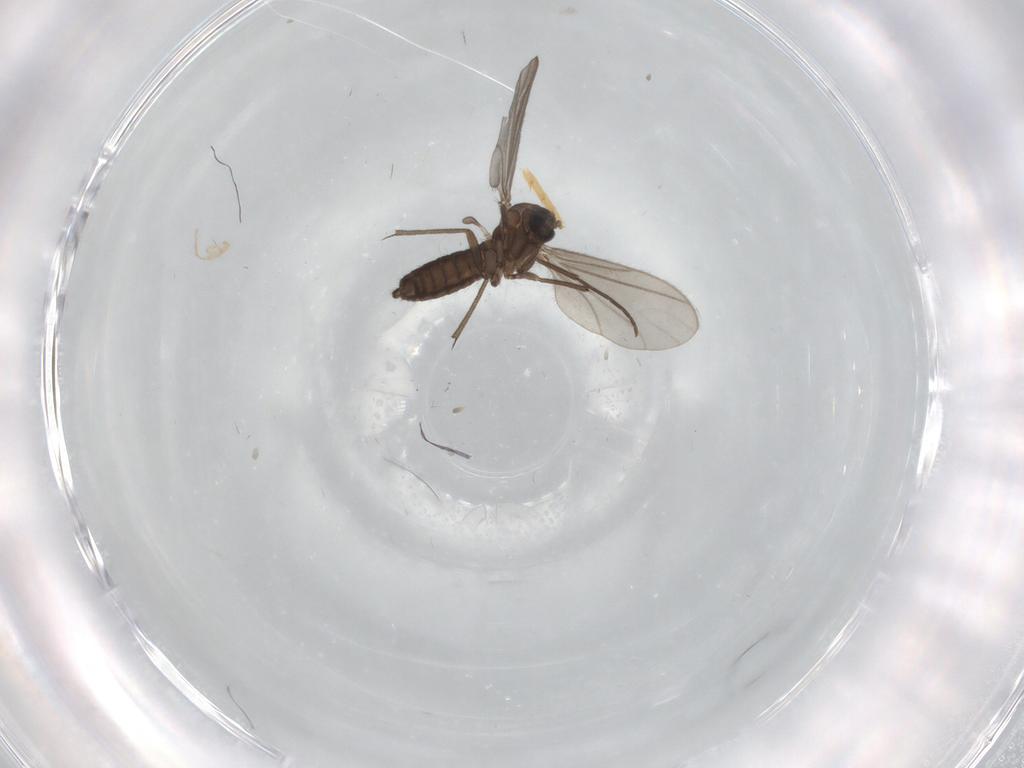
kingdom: Animalia
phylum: Arthropoda
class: Insecta
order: Diptera
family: Sciaridae
